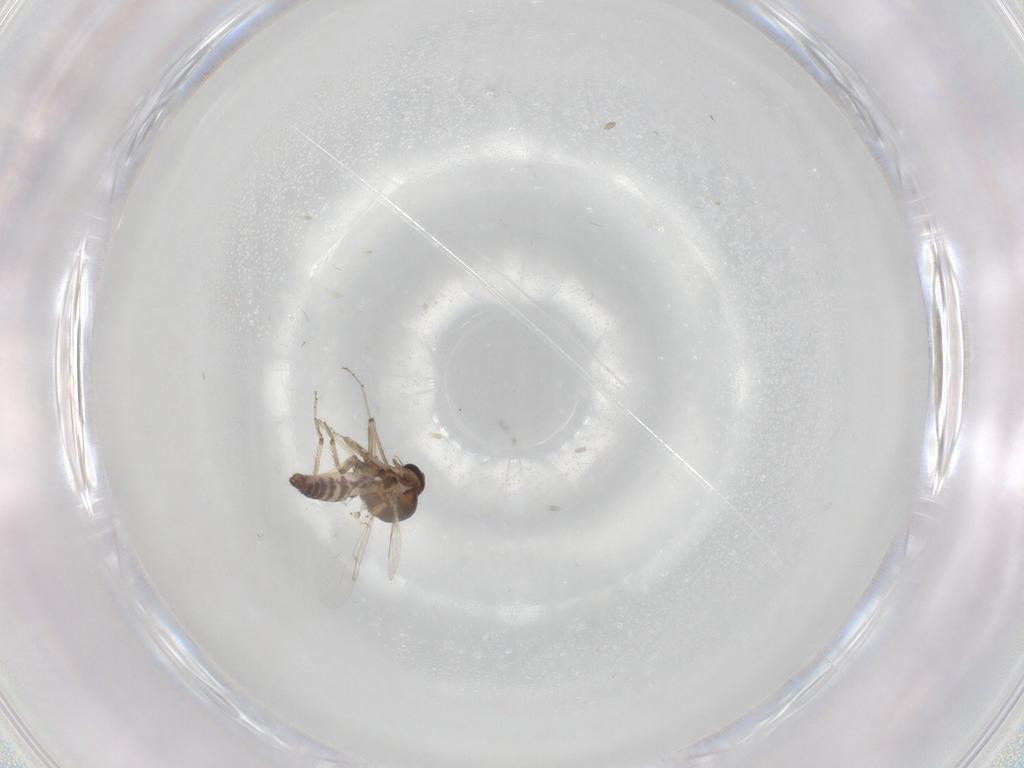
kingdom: Animalia
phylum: Arthropoda
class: Insecta
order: Diptera
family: Ceratopogonidae
